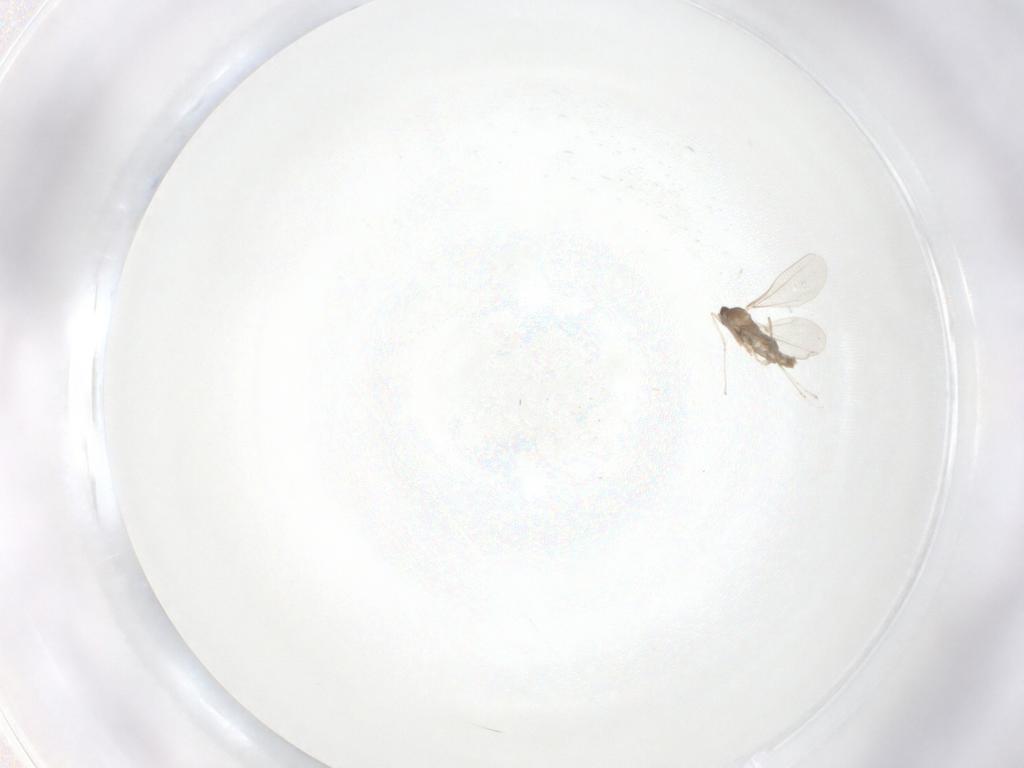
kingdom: Animalia
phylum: Arthropoda
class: Insecta
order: Diptera
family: Cecidomyiidae
